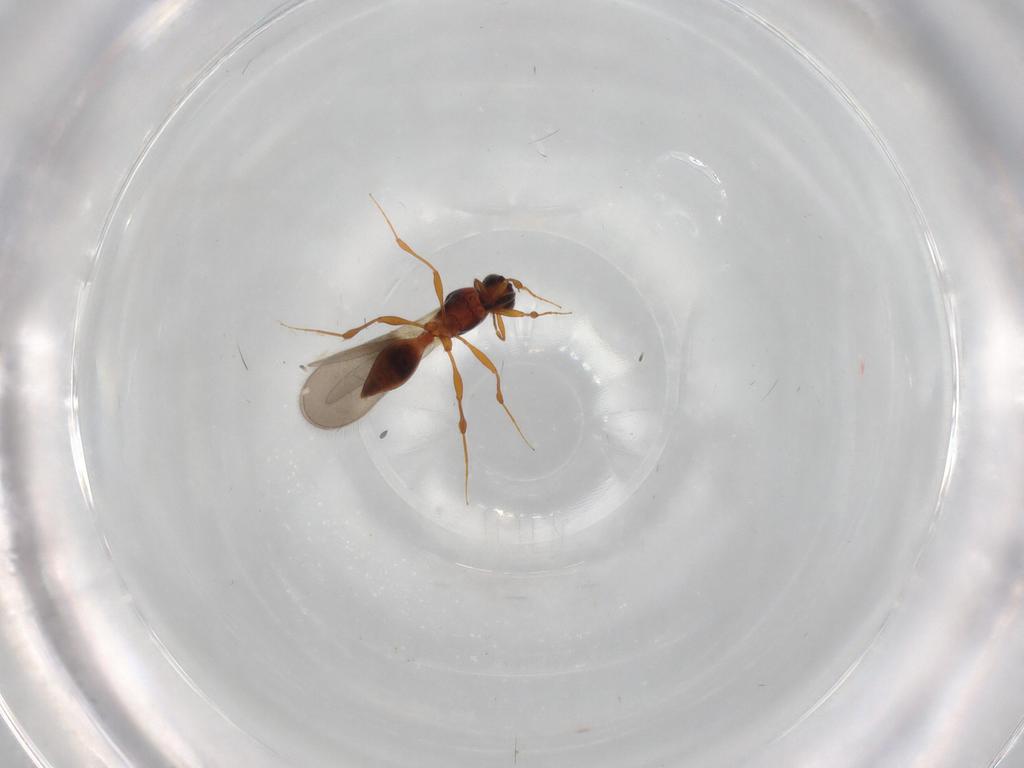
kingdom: Animalia
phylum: Arthropoda
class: Insecta
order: Hymenoptera
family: Platygastridae
